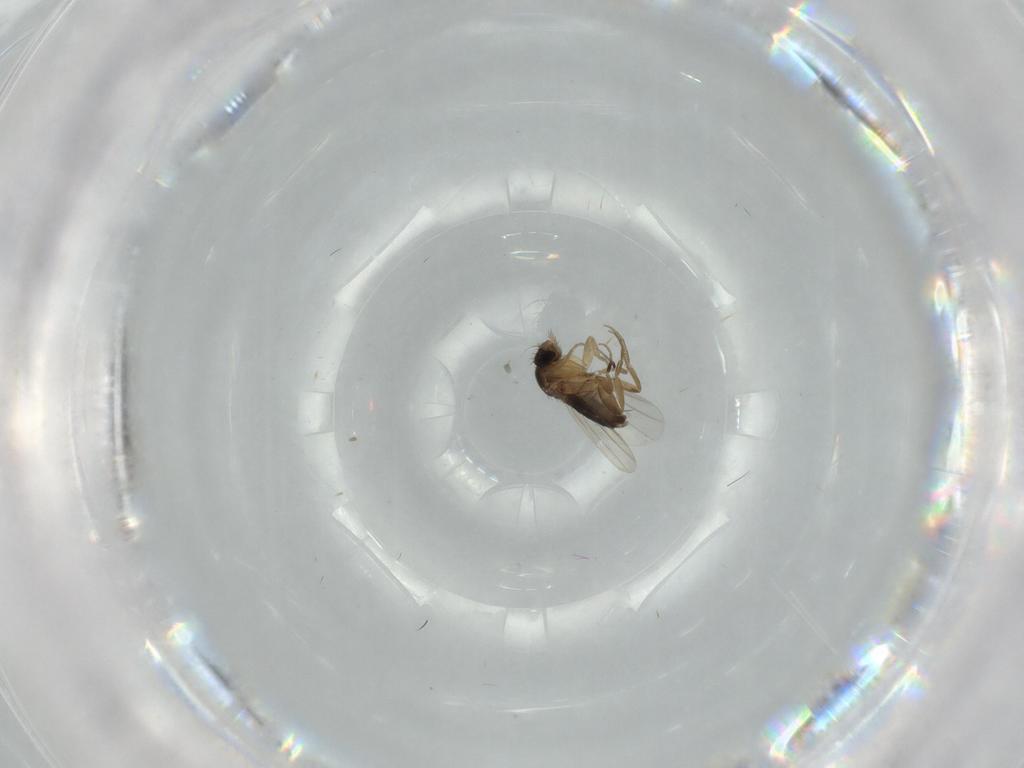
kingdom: Animalia
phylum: Arthropoda
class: Insecta
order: Diptera
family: Phoridae
